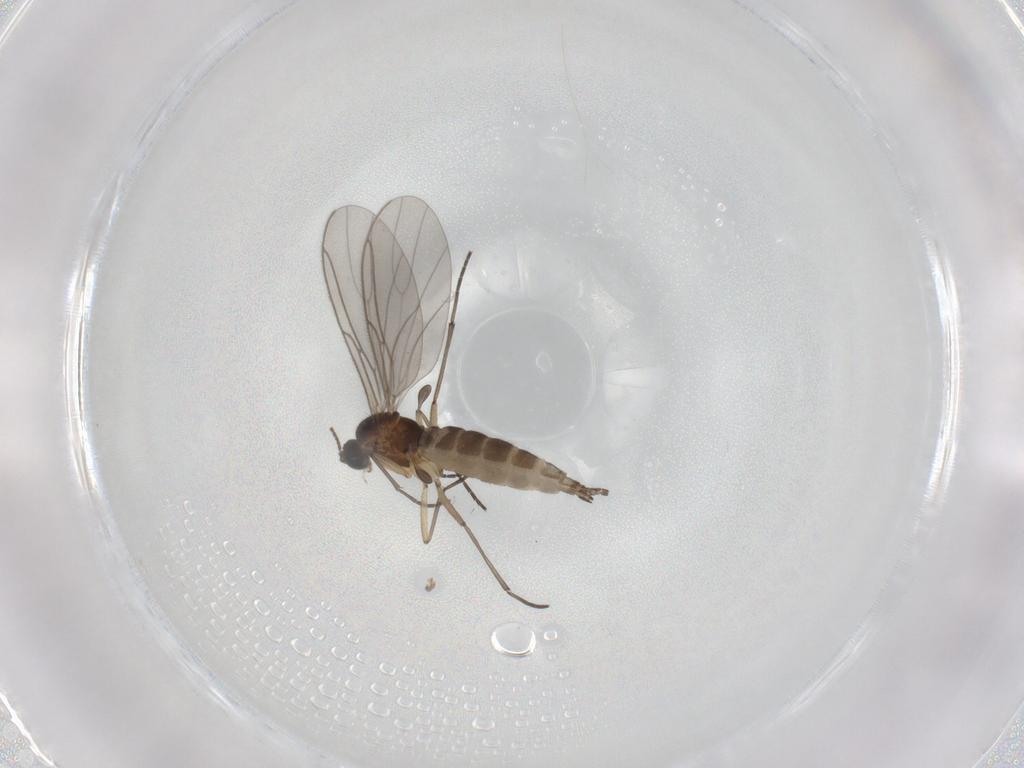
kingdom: Animalia
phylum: Arthropoda
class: Insecta
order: Diptera
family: Sciaridae
